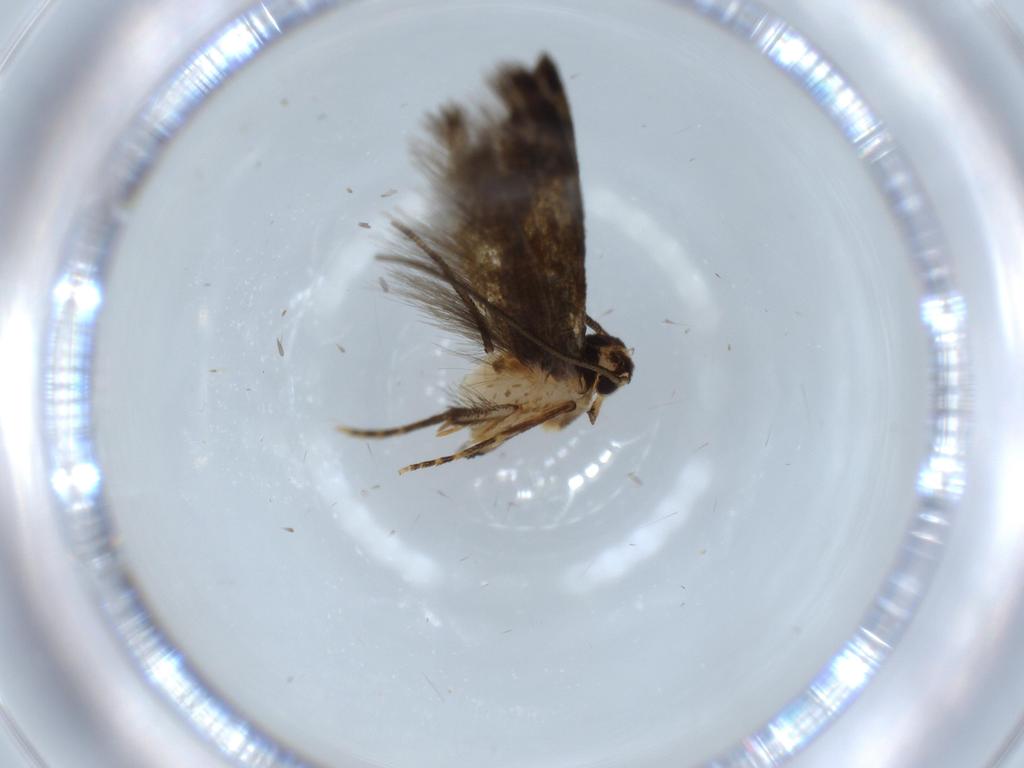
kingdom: Animalia
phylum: Arthropoda
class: Insecta
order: Lepidoptera
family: Tineidae
